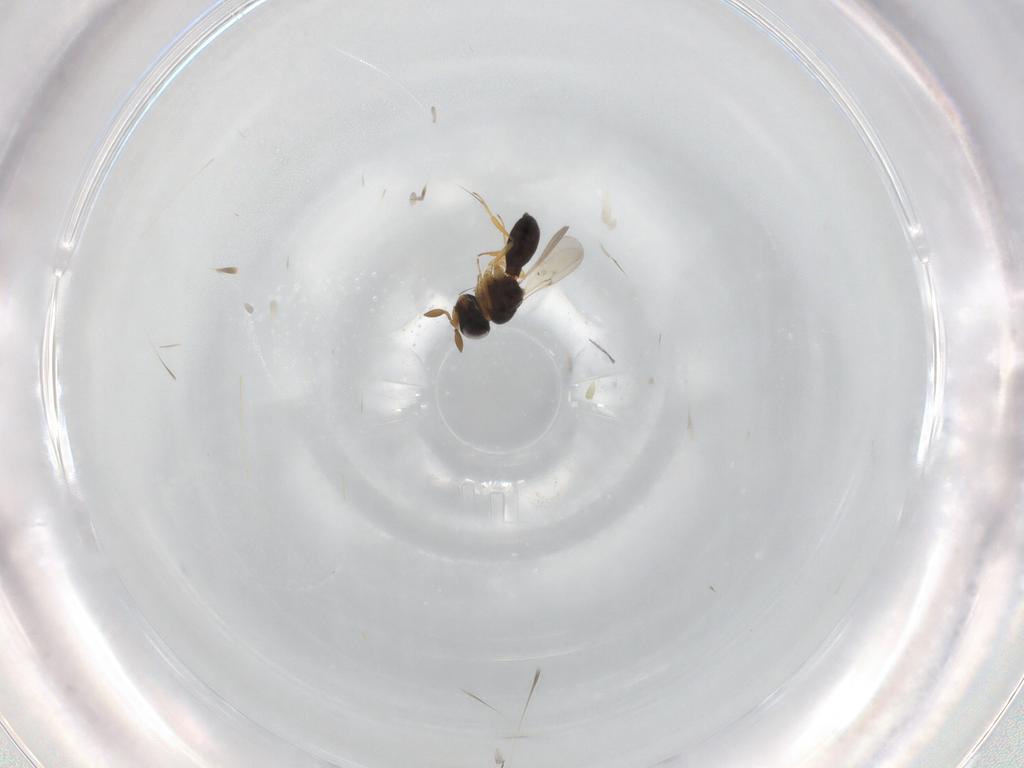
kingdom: Animalia
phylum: Arthropoda
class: Insecta
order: Hymenoptera
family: Scelionidae
